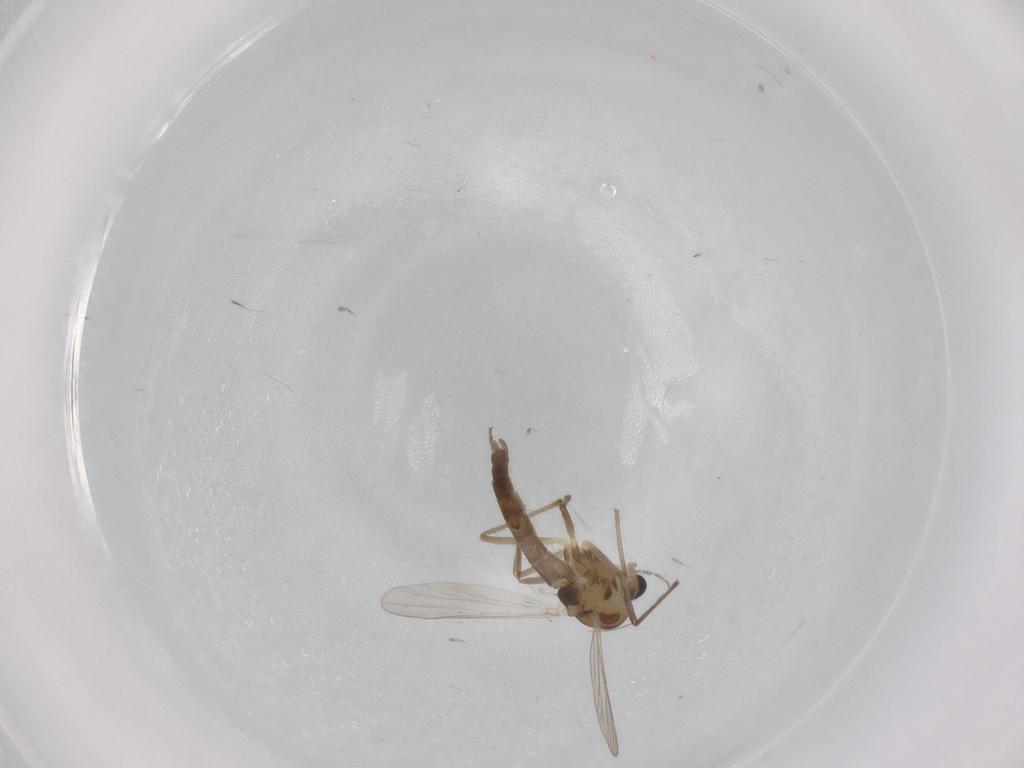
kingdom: Animalia
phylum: Arthropoda
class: Insecta
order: Diptera
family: Chironomidae
